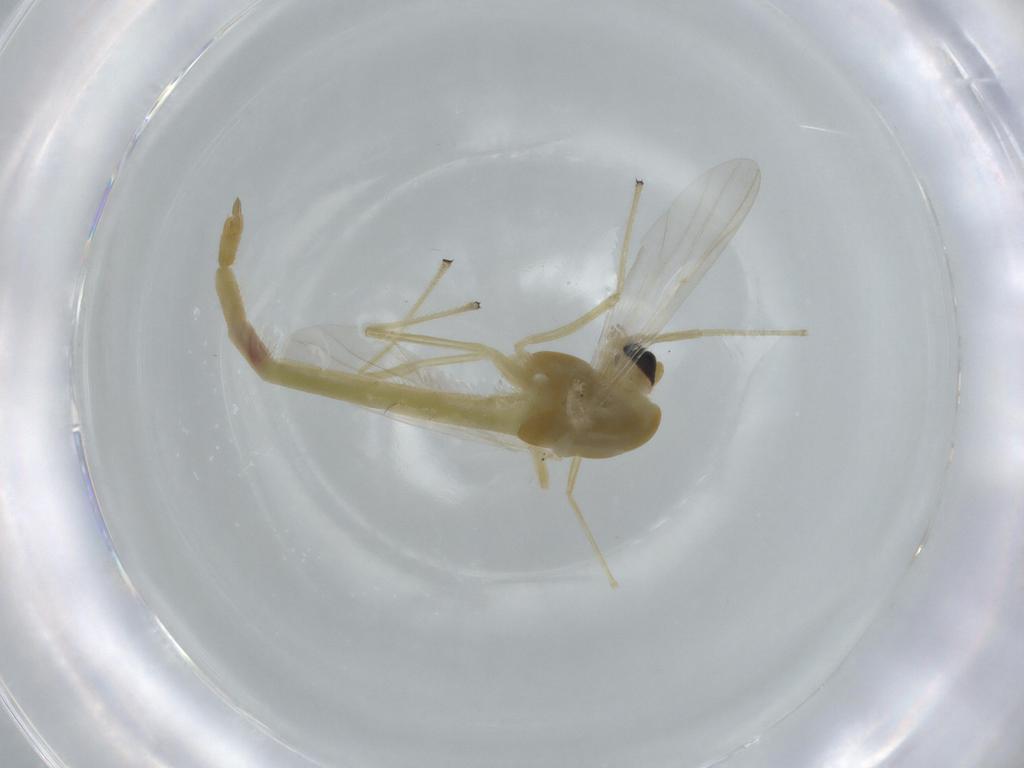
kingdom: Animalia
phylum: Arthropoda
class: Insecta
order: Diptera
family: Chironomidae
